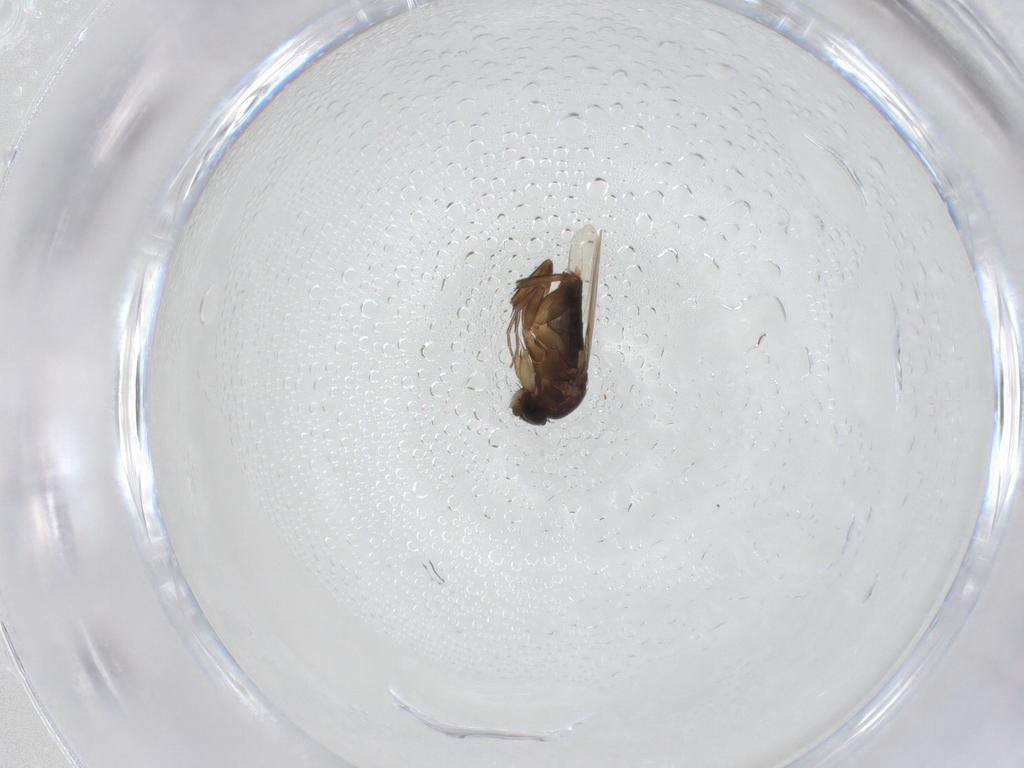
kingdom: Animalia
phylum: Arthropoda
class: Insecta
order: Diptera
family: Phoridae
